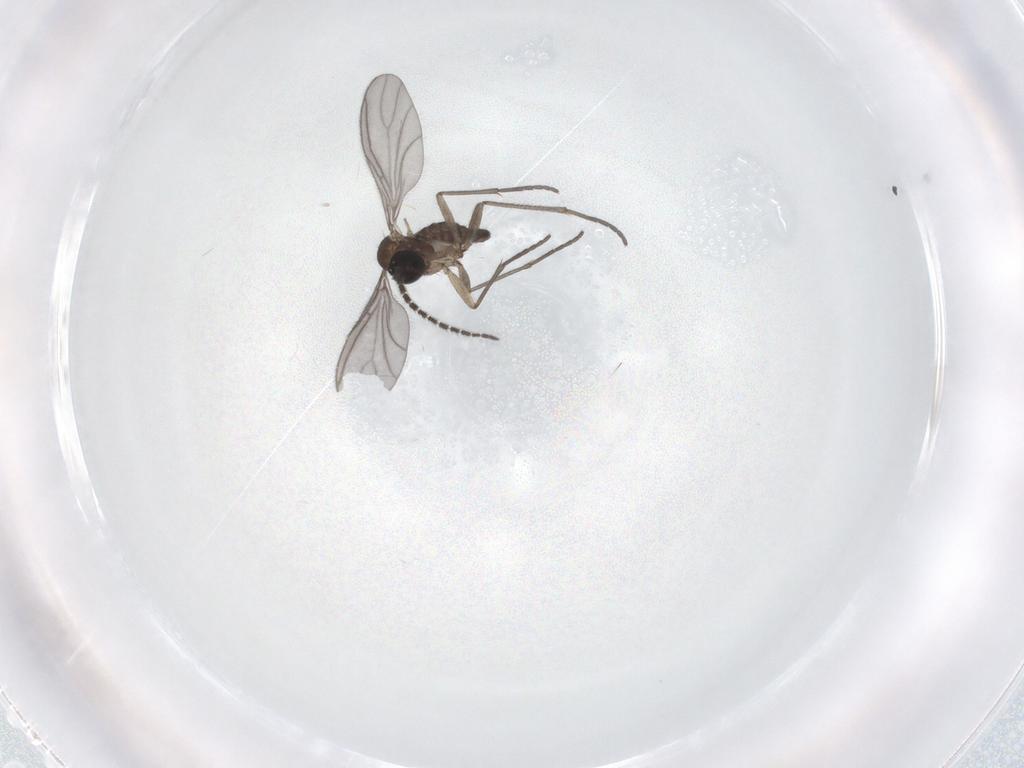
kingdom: Animalia
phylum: Arthropoda
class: Insecta
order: Diptera
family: Sciaridae
